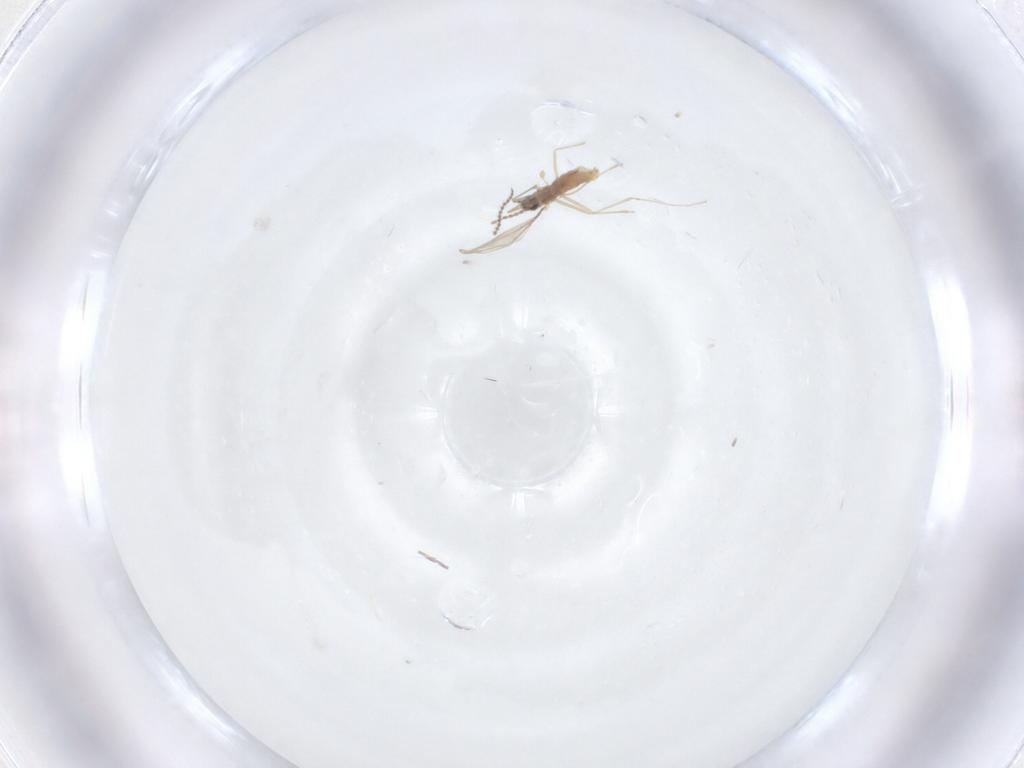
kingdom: Animalia
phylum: Arthropoda
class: Insecta
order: Diptera
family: Cecidomyiidae
